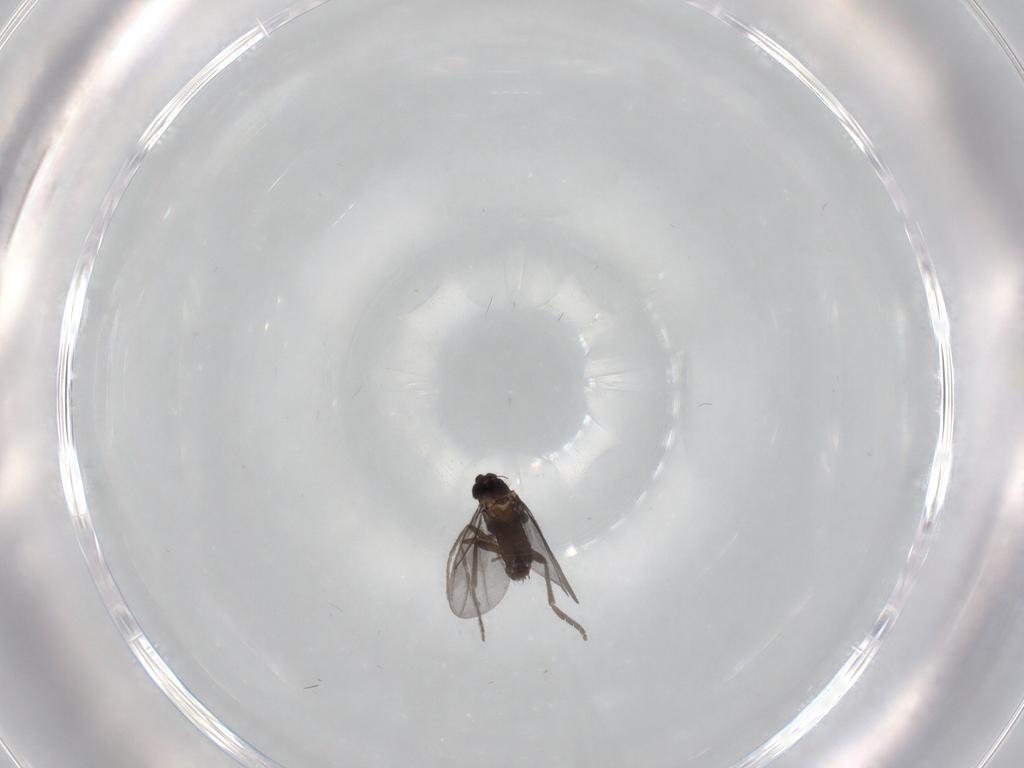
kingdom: Animalia
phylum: Arthropoda
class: Insecta
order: Diptera
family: Phoridae
